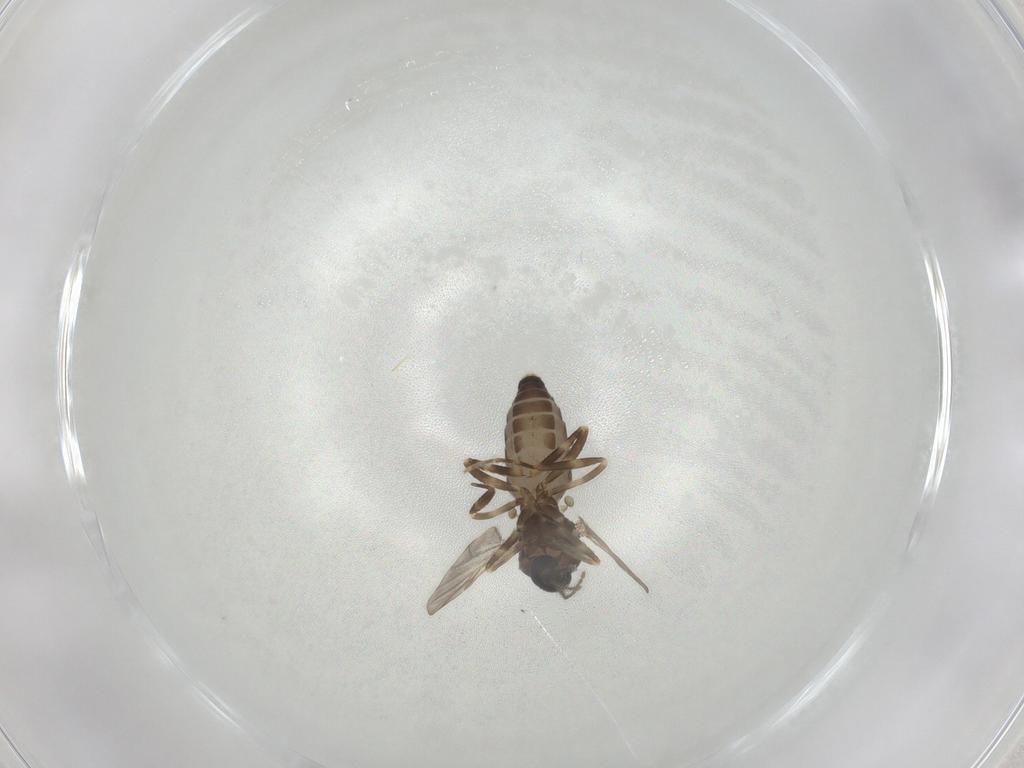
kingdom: Animalia
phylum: Arthropoda
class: Insecta
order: Diptera
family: Ceratopogonidae
